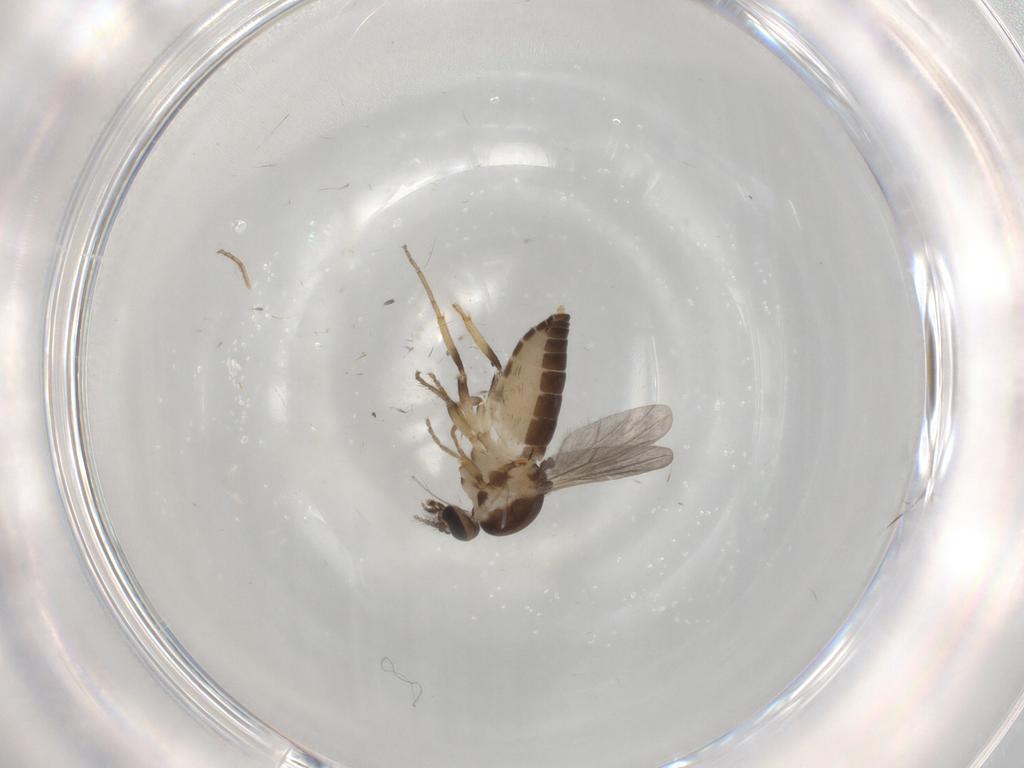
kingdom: Animalia
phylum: Arthropoda
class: Insecta
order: Diptera
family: Ceratopogonidae
